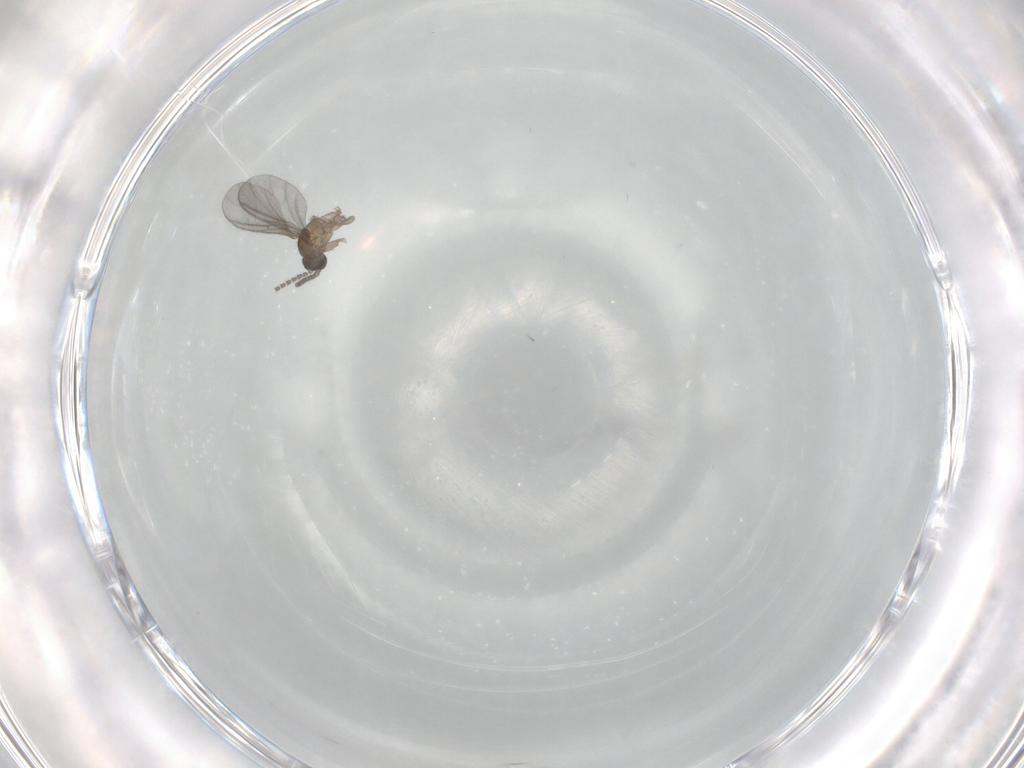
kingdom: Animalia
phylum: Arthropoda
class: Insecta
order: Diptera
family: Sciaridae
